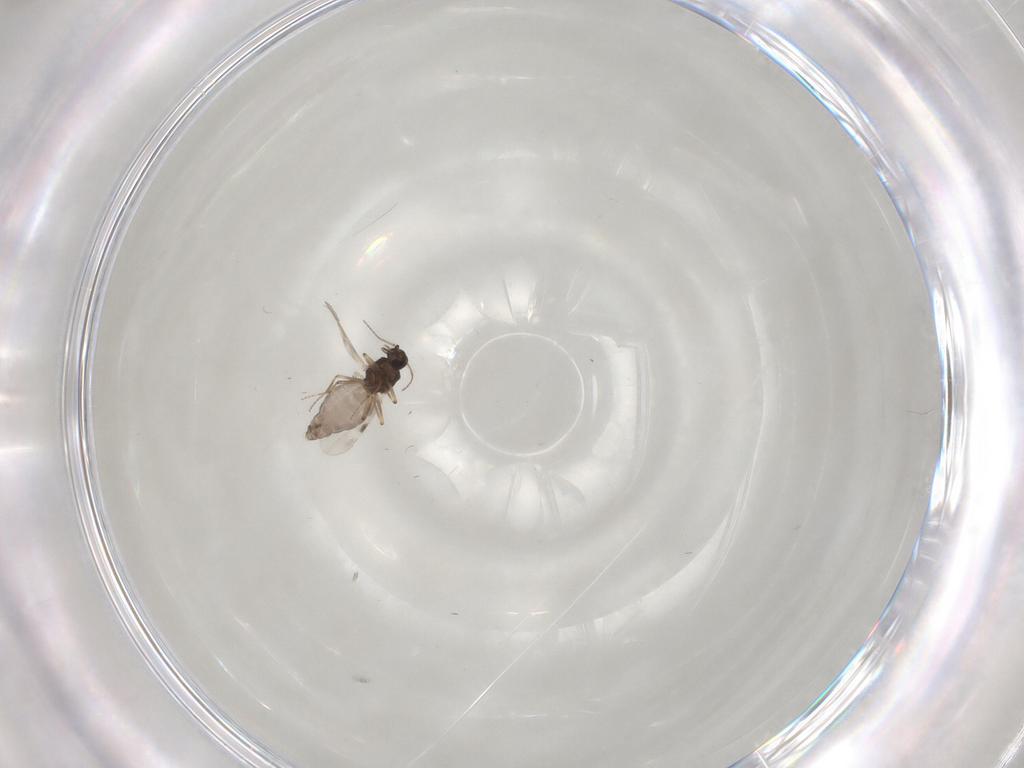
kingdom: Animalia
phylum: Arthropoda
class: Insecta
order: Diptera
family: Cecidomyiidae
